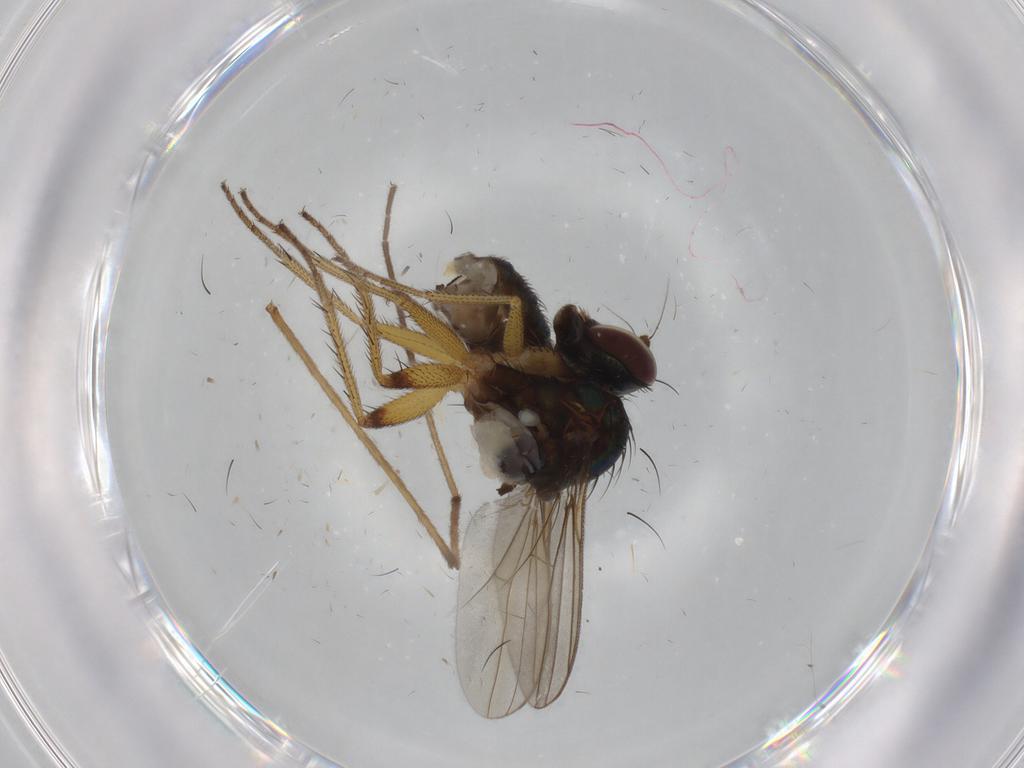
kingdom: Animalia
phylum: Arthropoda
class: Insecta
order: Diptera
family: Dolichopodidae
